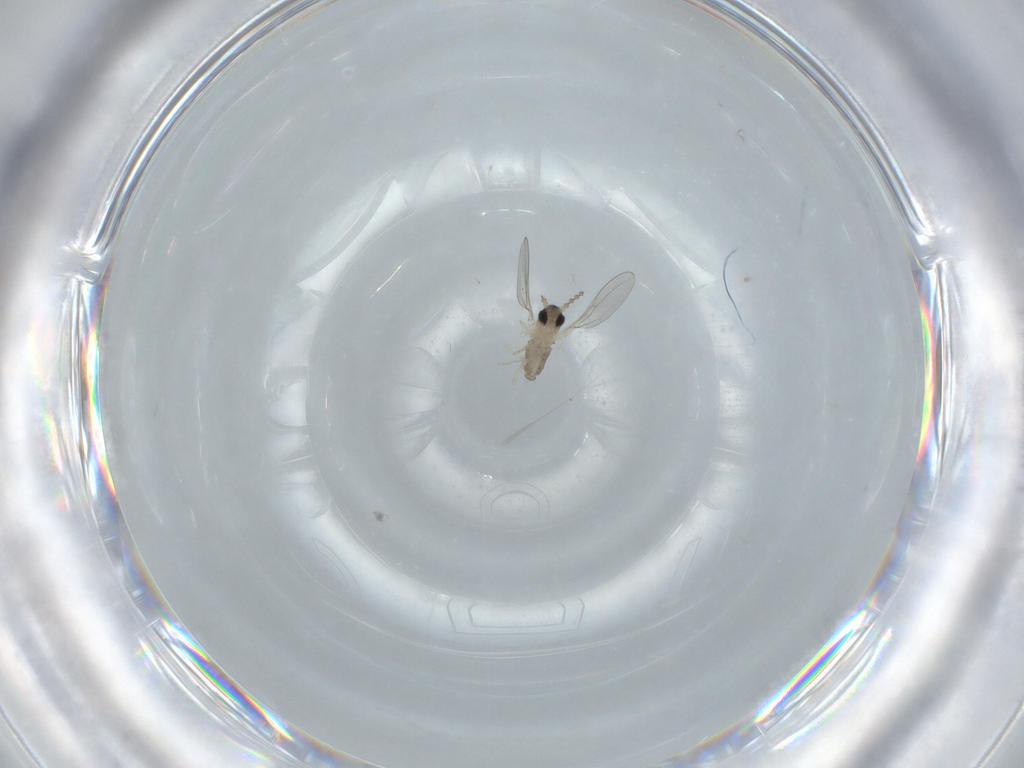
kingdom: Animalia
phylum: Arthropoda
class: Insecta
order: Diptera
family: Cecidomyiidae
